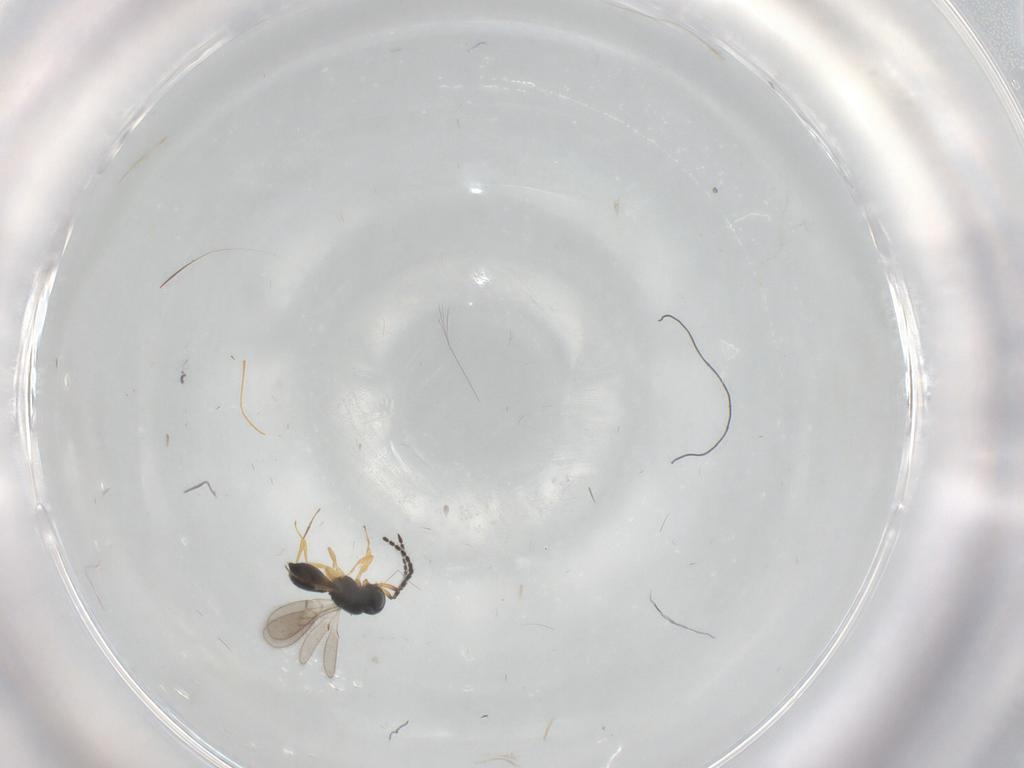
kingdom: Animalia
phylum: Arthropoda
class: Insecta
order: Hymenoptera
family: Scelionidae
